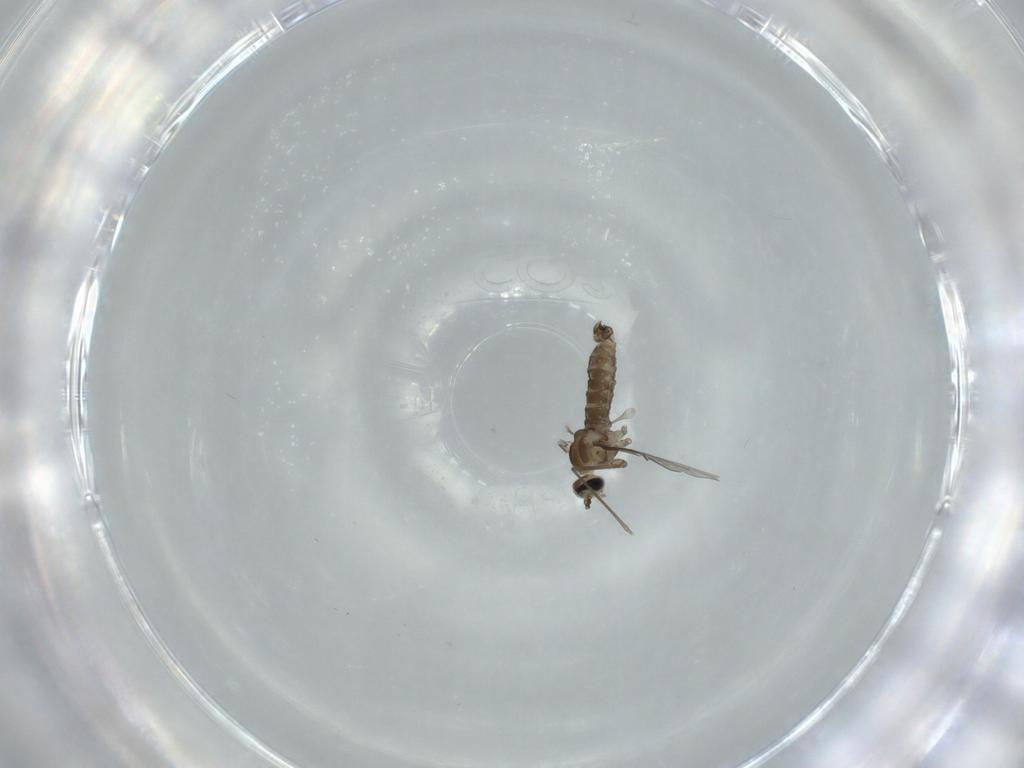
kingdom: Animalia
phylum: Arthropoda
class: Insecta
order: Diptera
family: Cecidomyiidae
